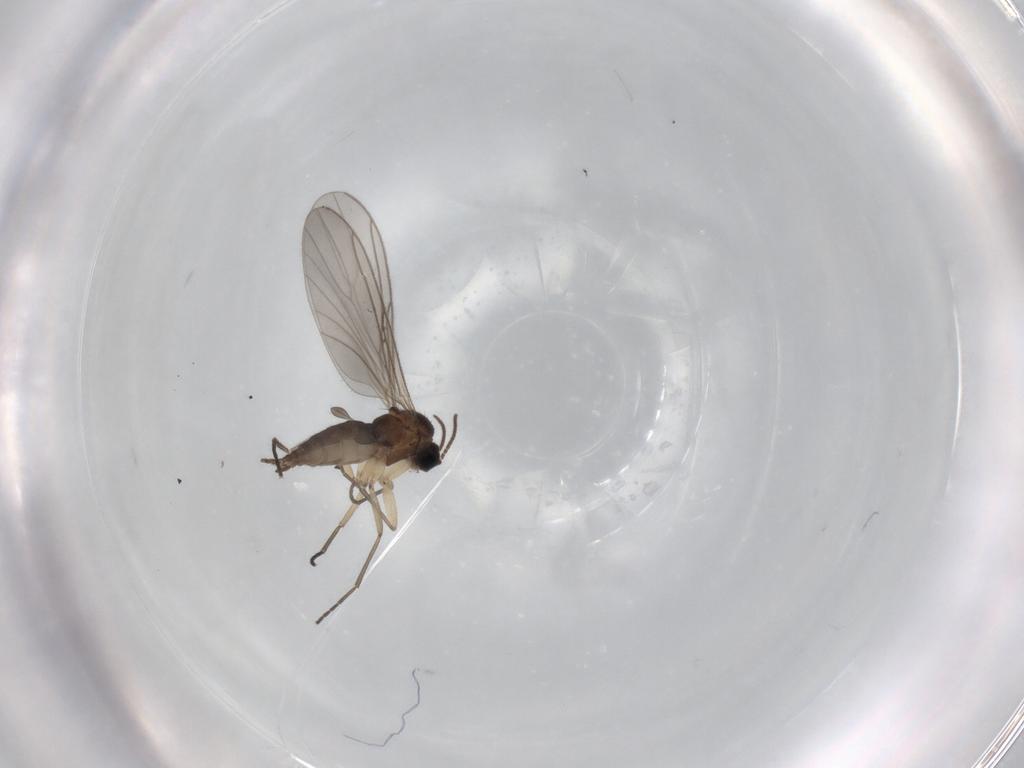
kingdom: Animalia
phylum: Arthropoda
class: Insecta
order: Diptera
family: Sciaridae
